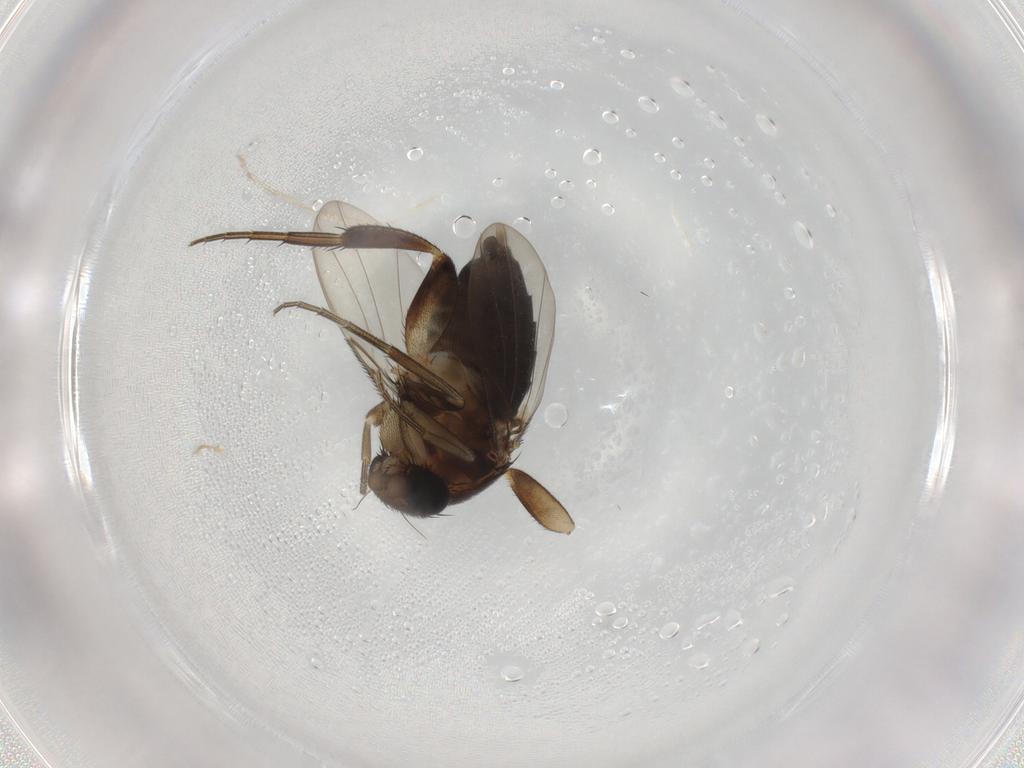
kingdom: Animalia
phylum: Arthropoda
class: Insecta
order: Diptera
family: Phoridae
